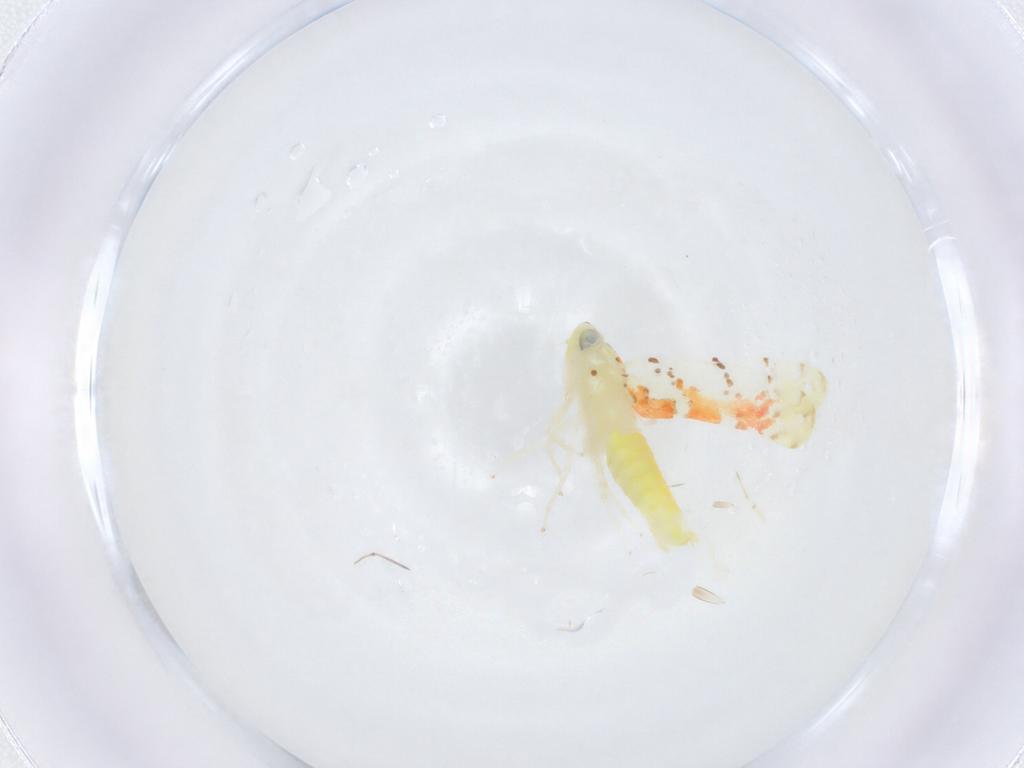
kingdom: Animalia
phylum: Arthropoda
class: Insecta
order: Hemiptera
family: Cicadellidae
